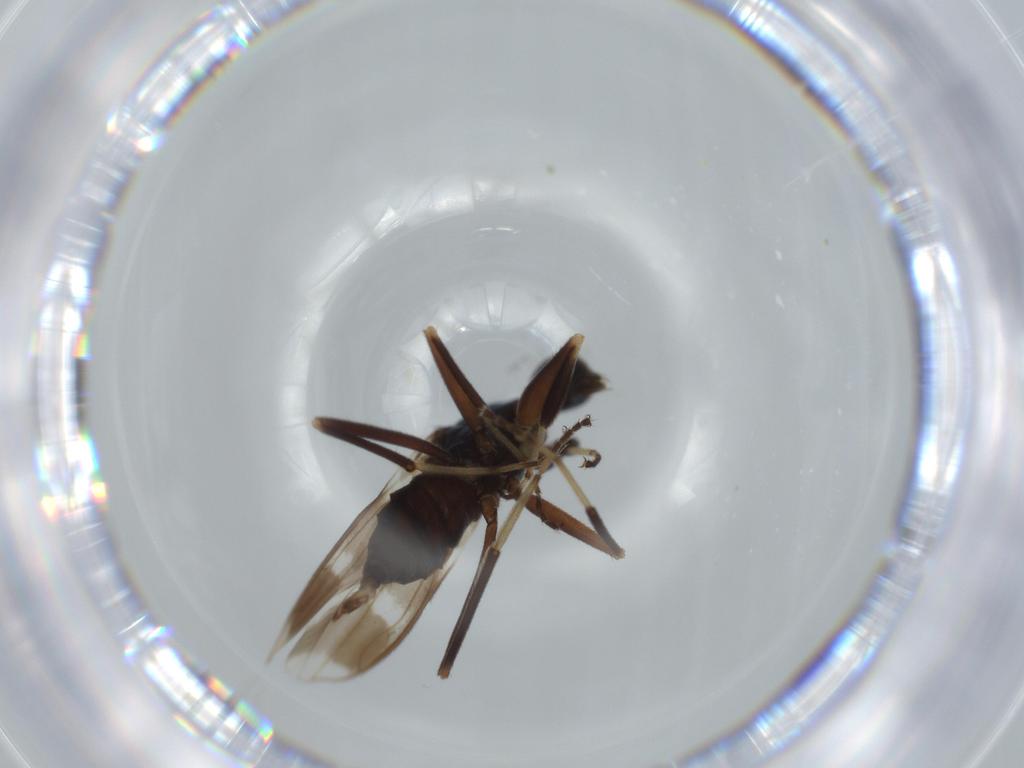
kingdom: Animalia
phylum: Arthropoda
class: Insecta
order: Diptera
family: Hybotidae
